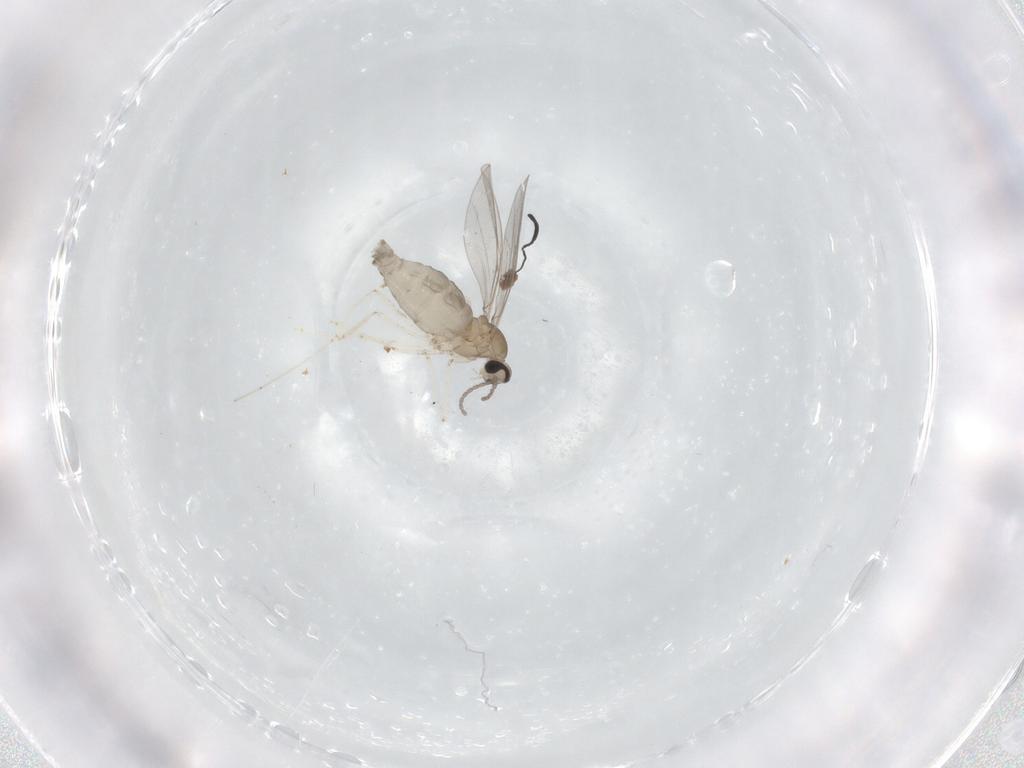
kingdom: Animalia
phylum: Arthropoda
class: Insecta
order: Diptera
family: Cecidomyiidae
